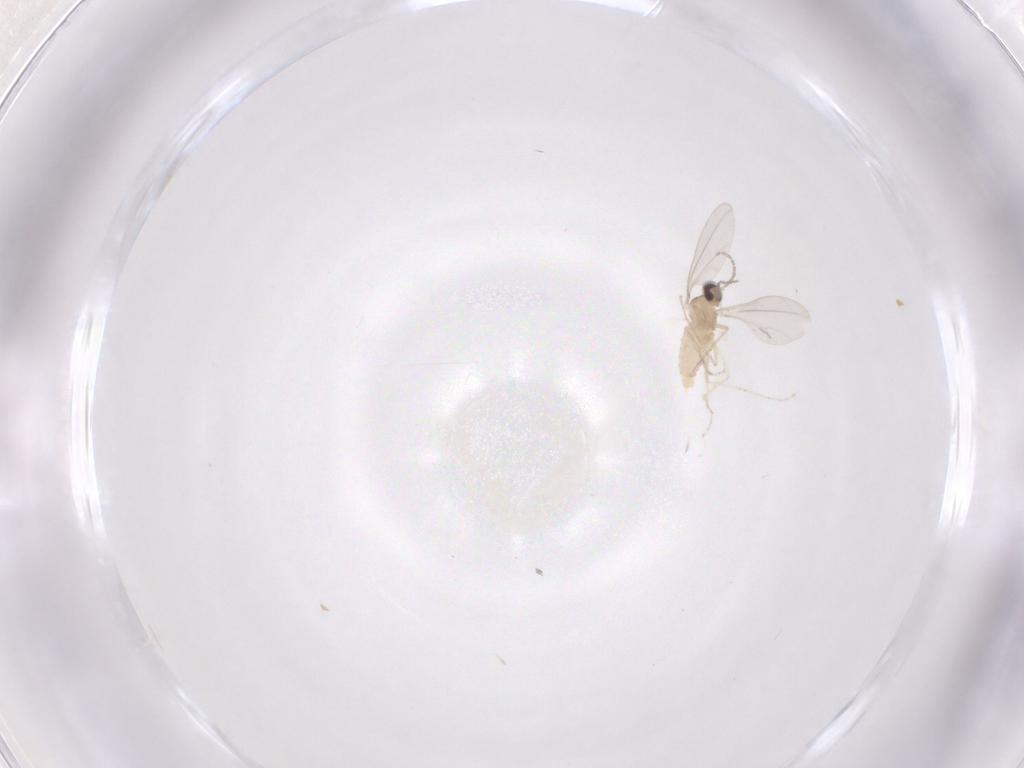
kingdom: Animalia
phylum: Arthropoda
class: Insecta
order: Diptera
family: Cecidomyiidae
